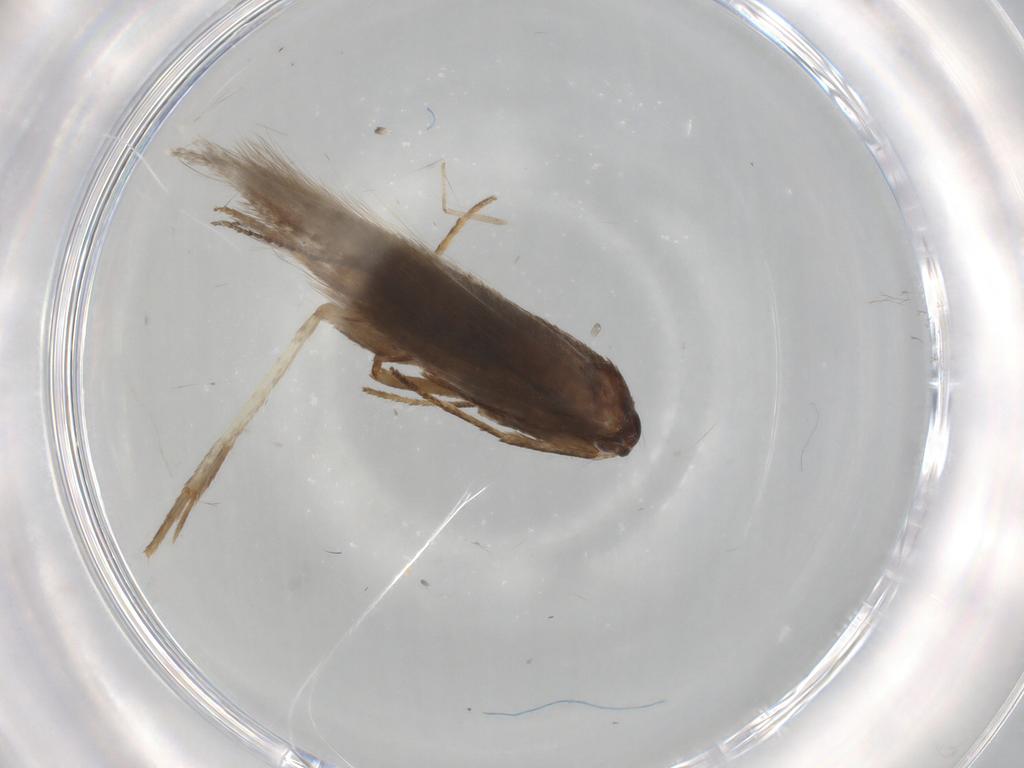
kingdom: Animalia
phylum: Arthropoda
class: Insecta
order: Lepidoptera
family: Erebidae
